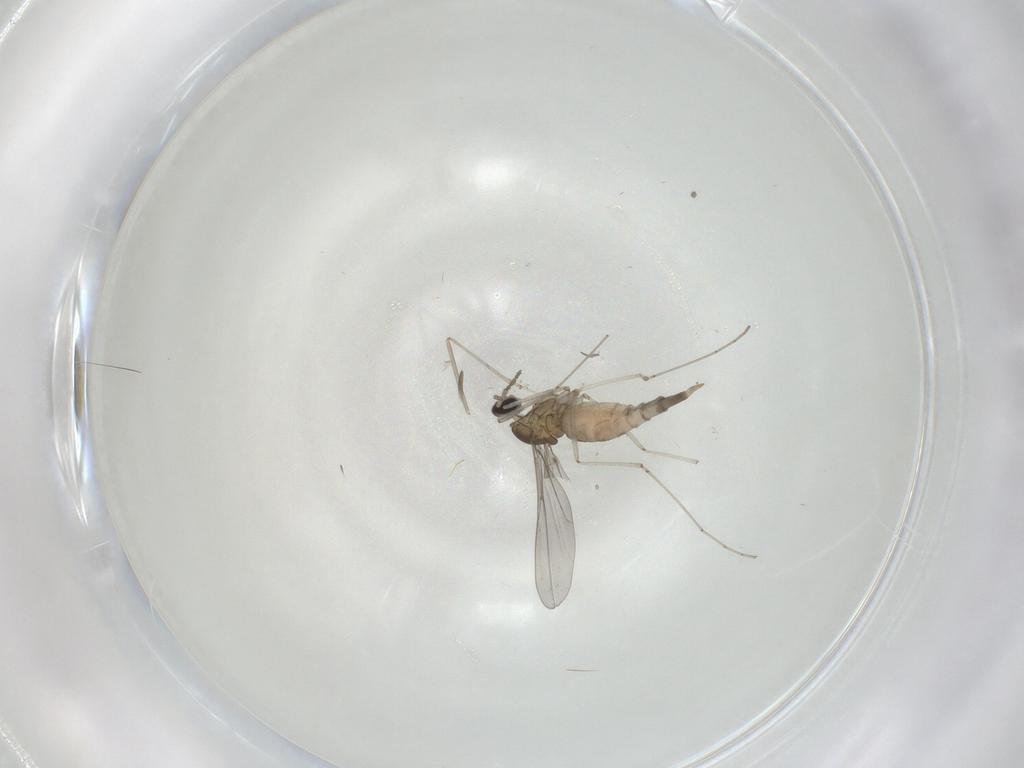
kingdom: Animalia
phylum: Arthropoda
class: Insecta
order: Diptera
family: Cecidomyiidae
